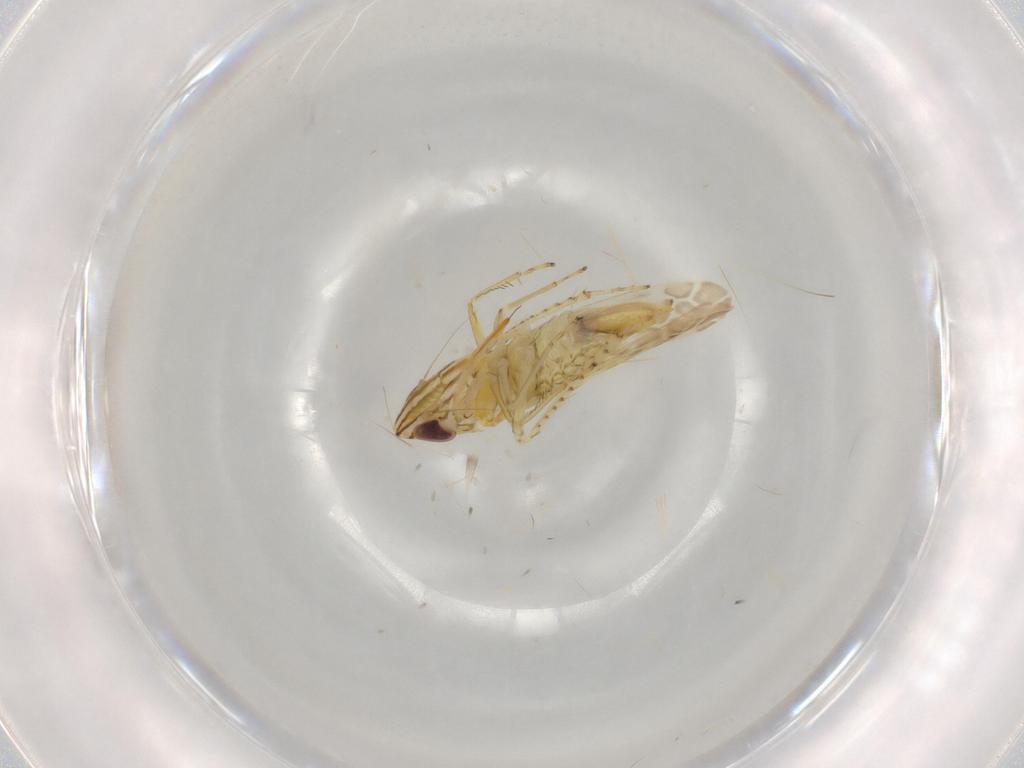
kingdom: Animalia
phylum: Arthropoda
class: Insecta
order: Hemiptera
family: Cicadellidae
